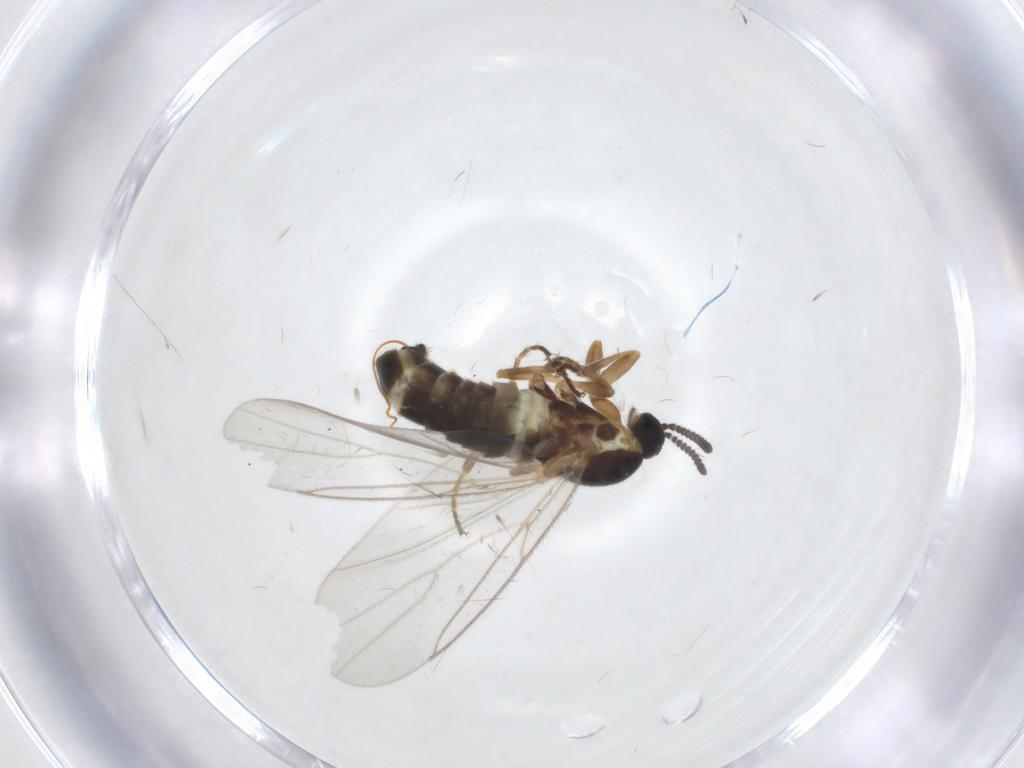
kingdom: Animalia
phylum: Arthropoda
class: Insecta
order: Diptera
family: Scatopsidae
